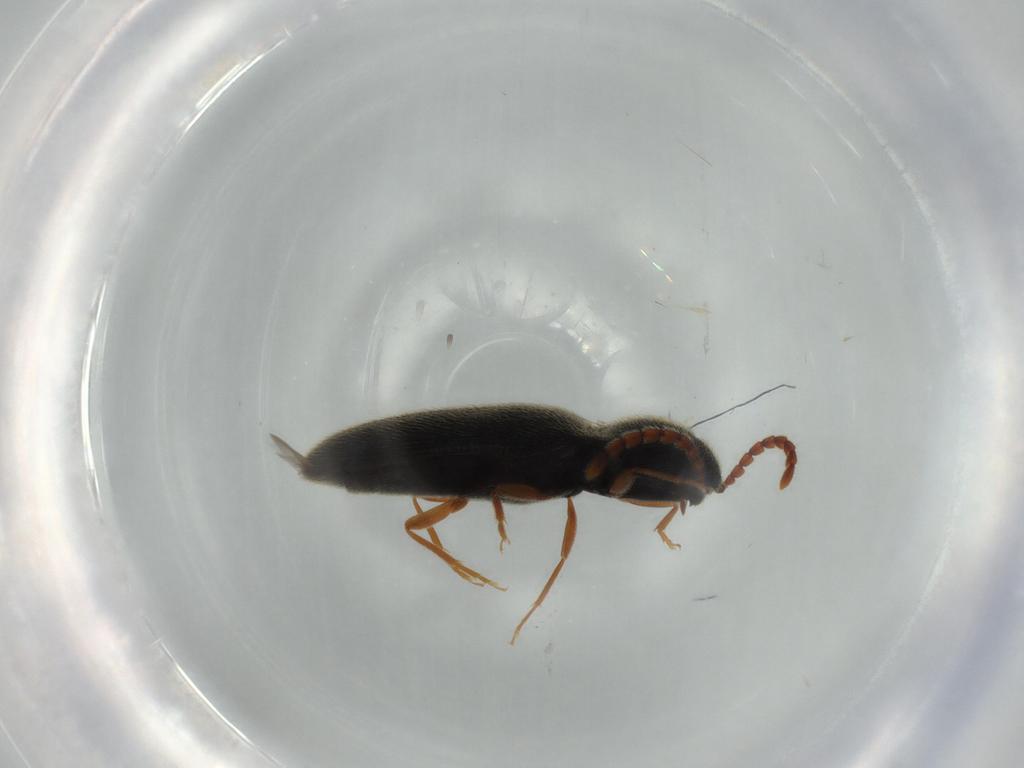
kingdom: Animalia
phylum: Arthropoda
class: Insecta
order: Coleoptera
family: Elateridae
